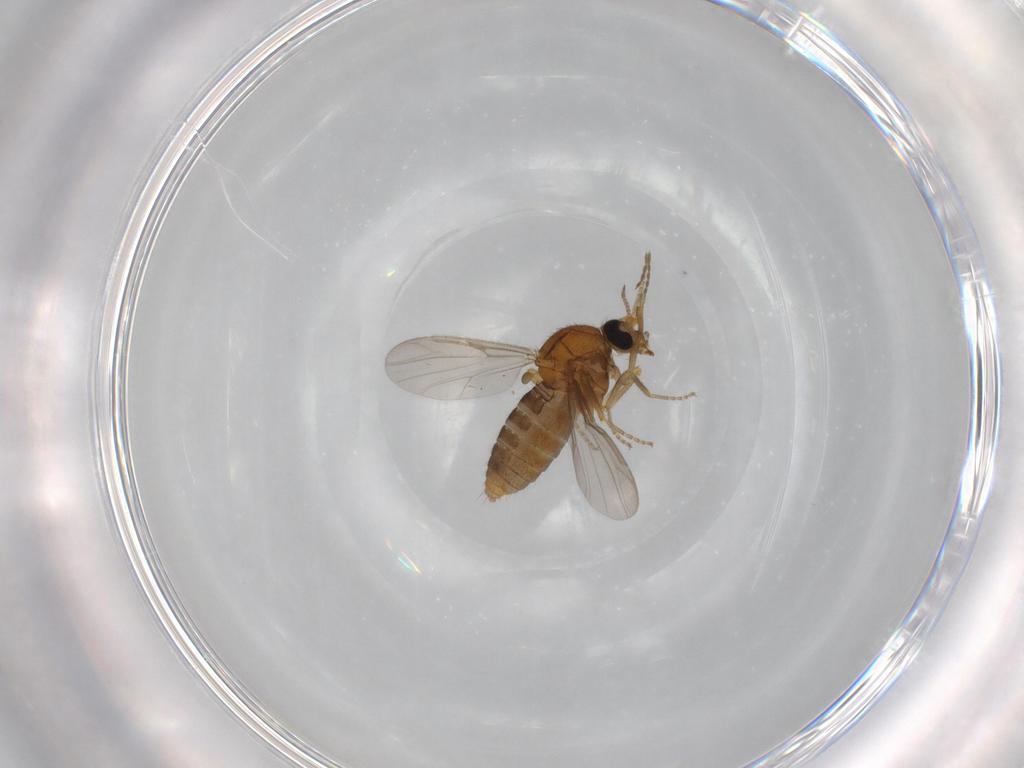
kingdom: Animalia
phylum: Arthropoda
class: Insecta
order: Diptera
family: Ceratopogonidae
